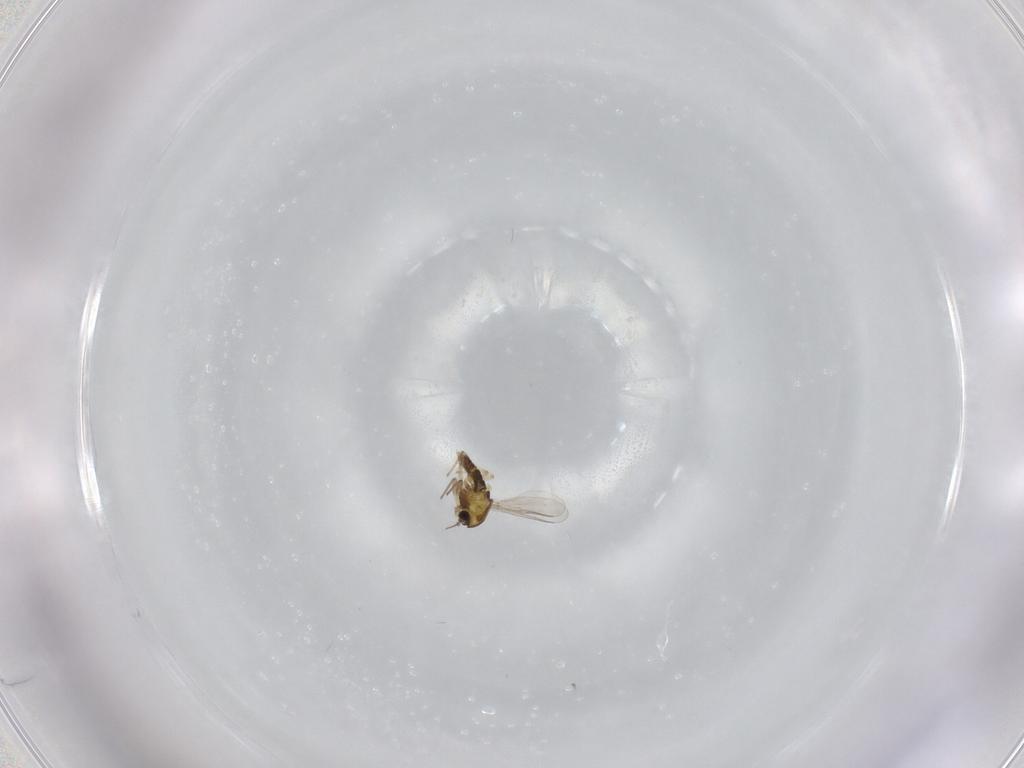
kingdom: Animalia
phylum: Arthropoda
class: Insecta
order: Diptera
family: Chironomidae
